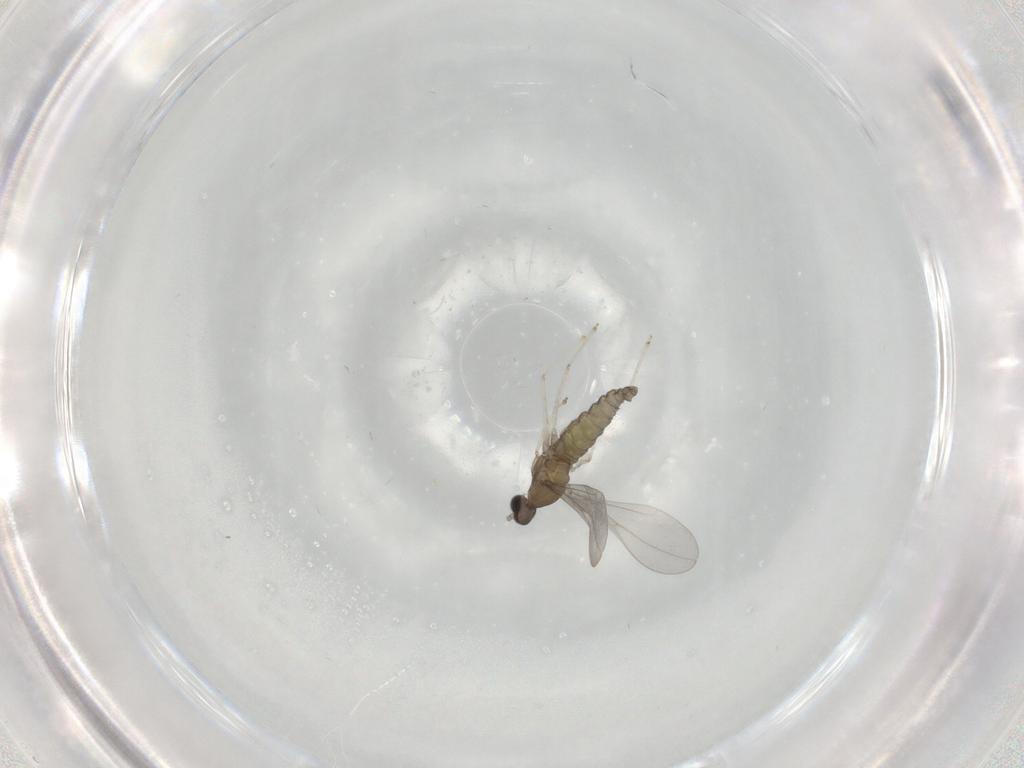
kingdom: Animalia
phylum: Arthropoda
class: Insecta
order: Diptera
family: Cecidomyiidae
